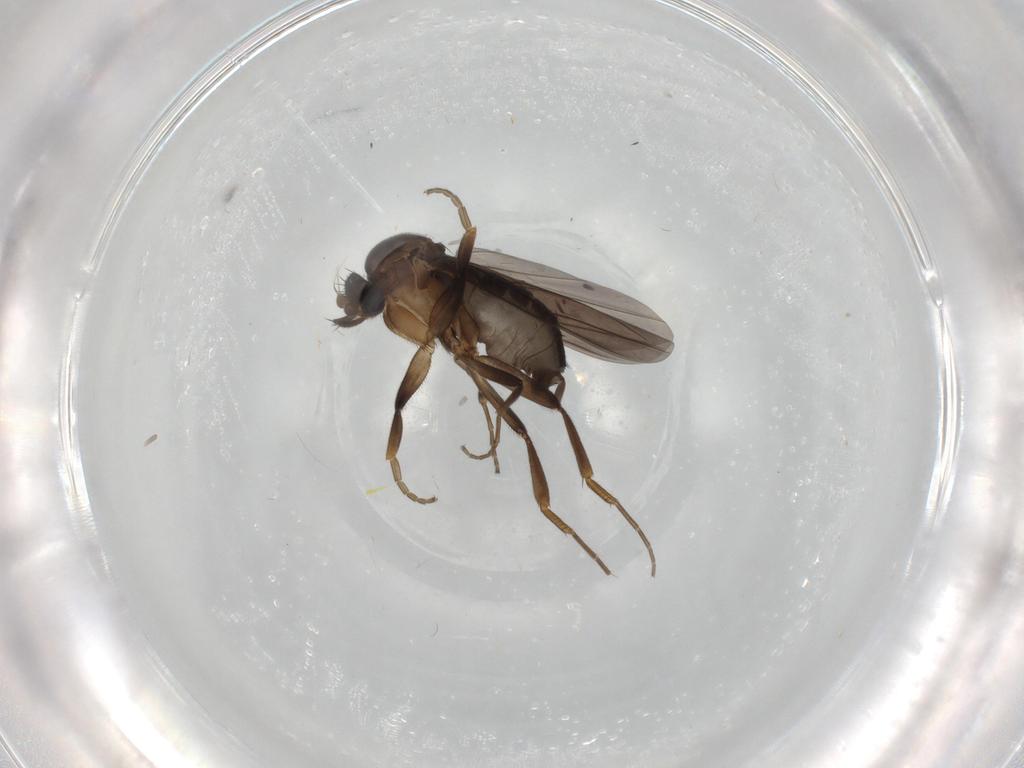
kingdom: Animalia
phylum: Arthropoda
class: Insecta
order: Diptera
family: Phoridae
